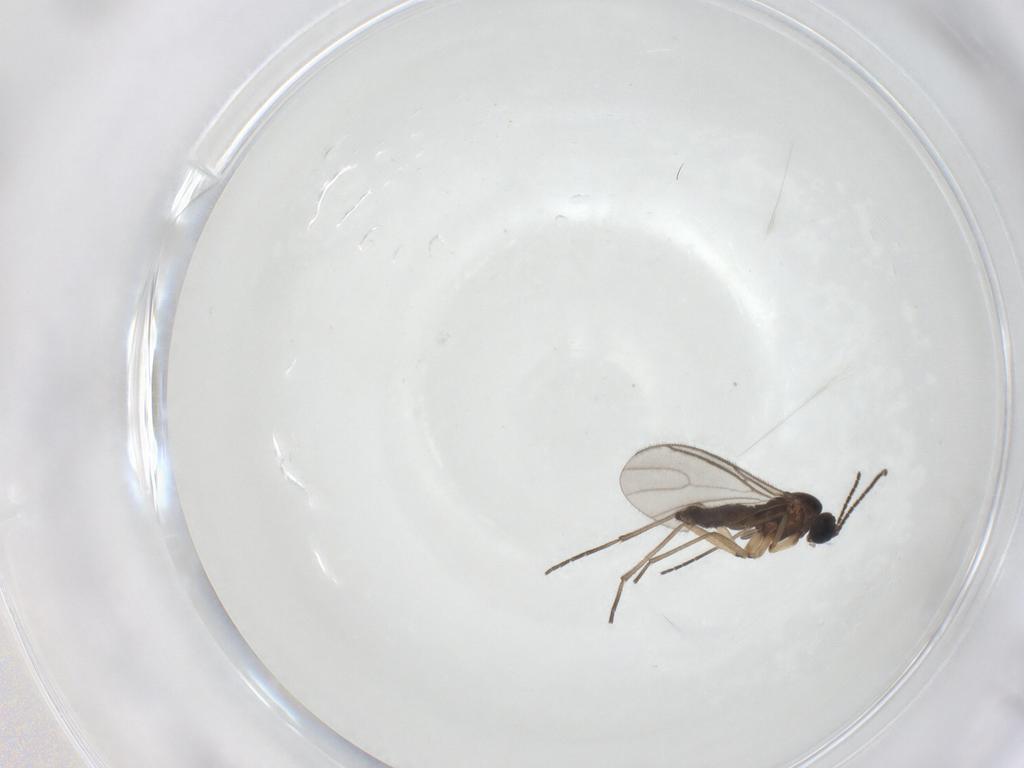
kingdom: Animalia
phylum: Arthropoda
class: Insecta
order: Diptera
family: Sciaridae
